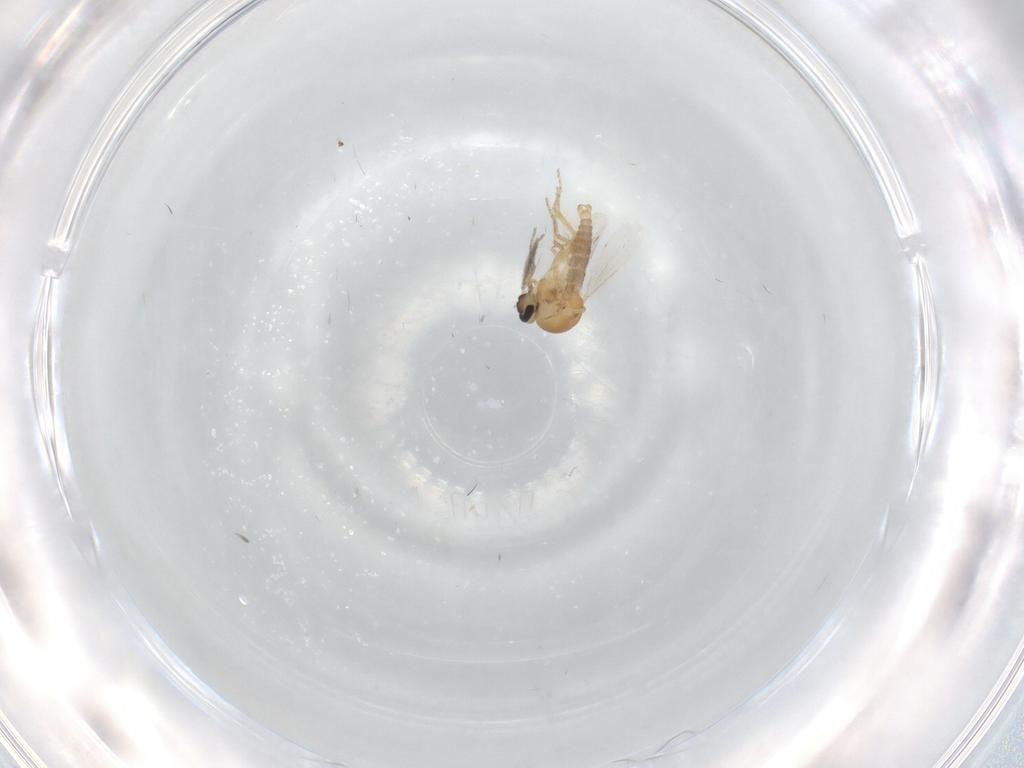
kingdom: Animalia
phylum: Arthropoda
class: Insecta
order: Diptera
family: Ceratopogonidae
